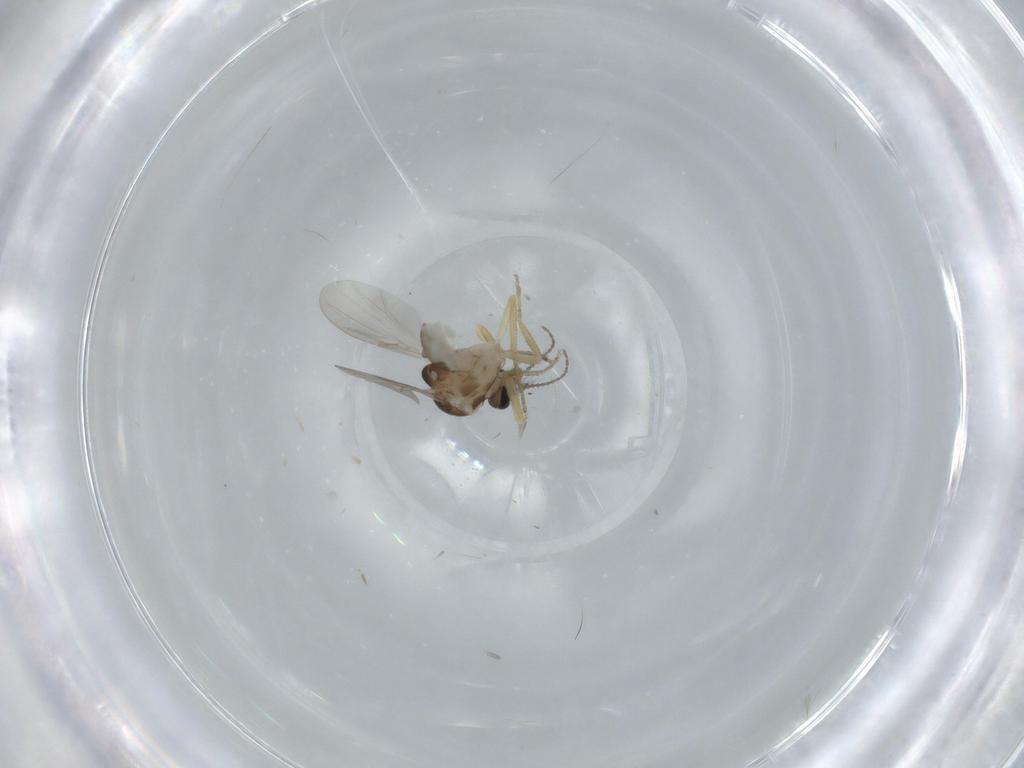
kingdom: Animalia
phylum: Arthropoda
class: Insecta
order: Diptera
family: Ceratopogonidae
